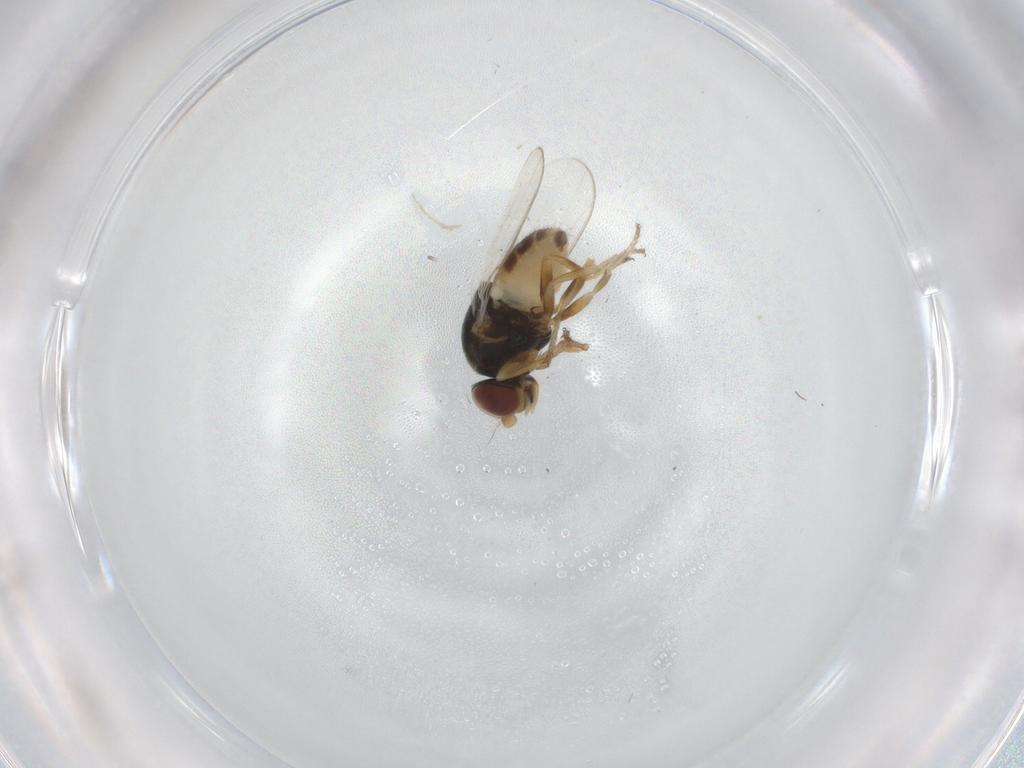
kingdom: Animalia
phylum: Arthropoda
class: Insecta
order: Diptera
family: Chloropidae
